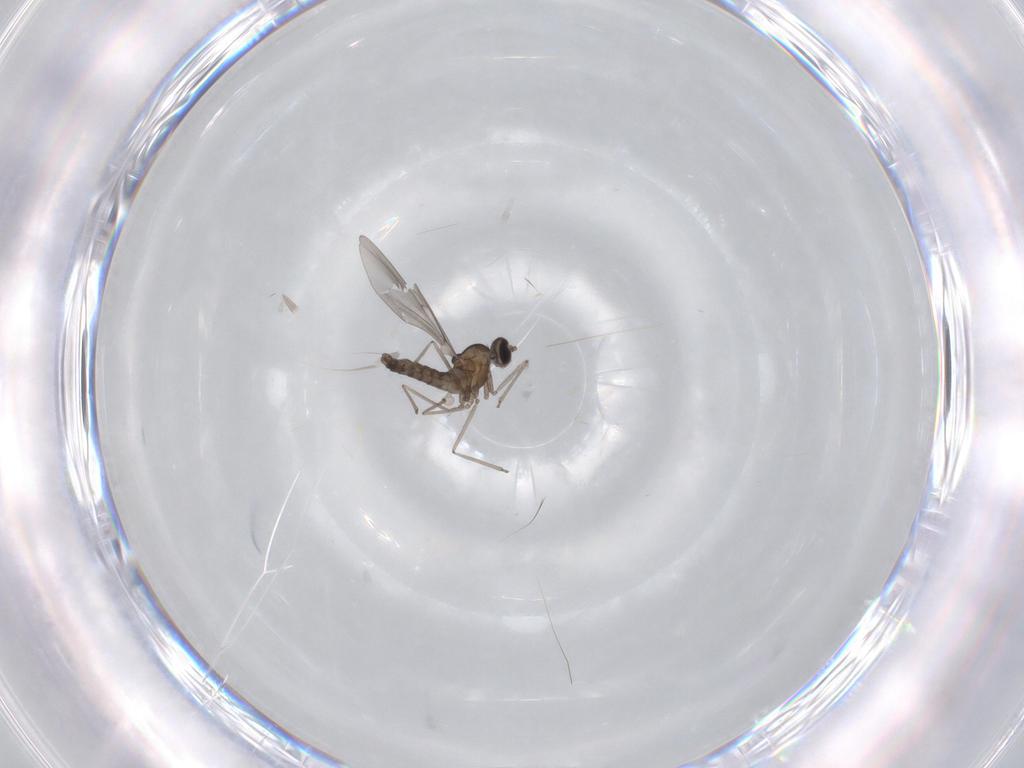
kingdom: Animalia
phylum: Arthropoda
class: Insecta
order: Diptera
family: Cecidomyiidae
